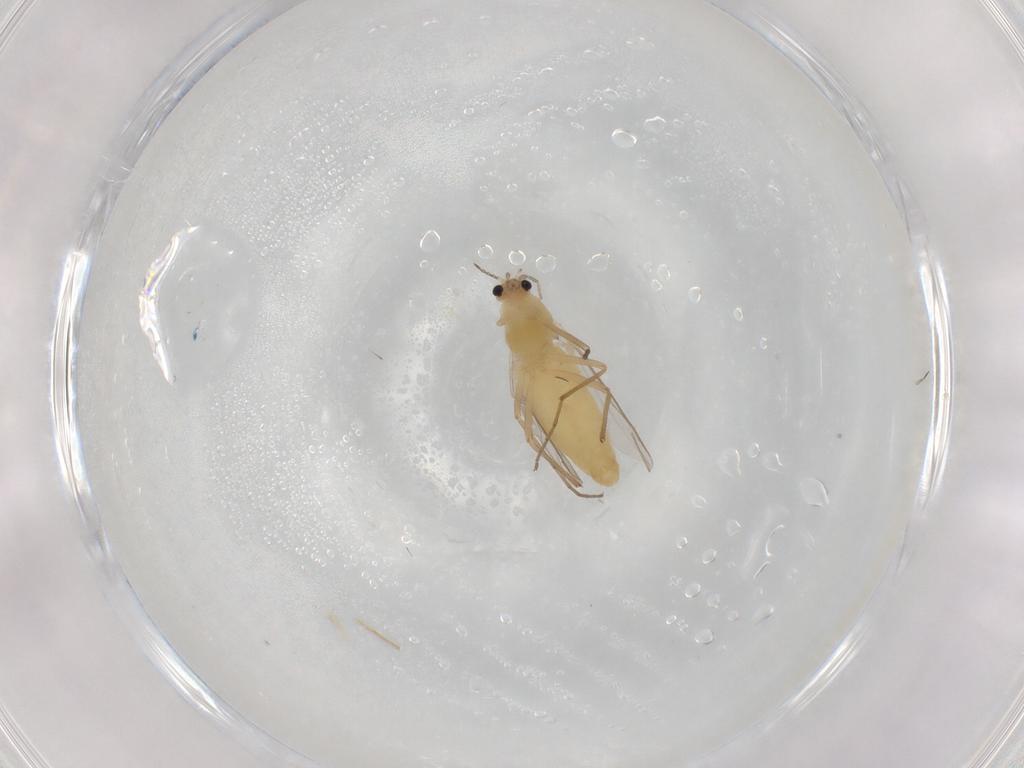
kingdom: Animalia
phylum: Arthropoda
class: Insecta
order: Diptera
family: Chironomidae
